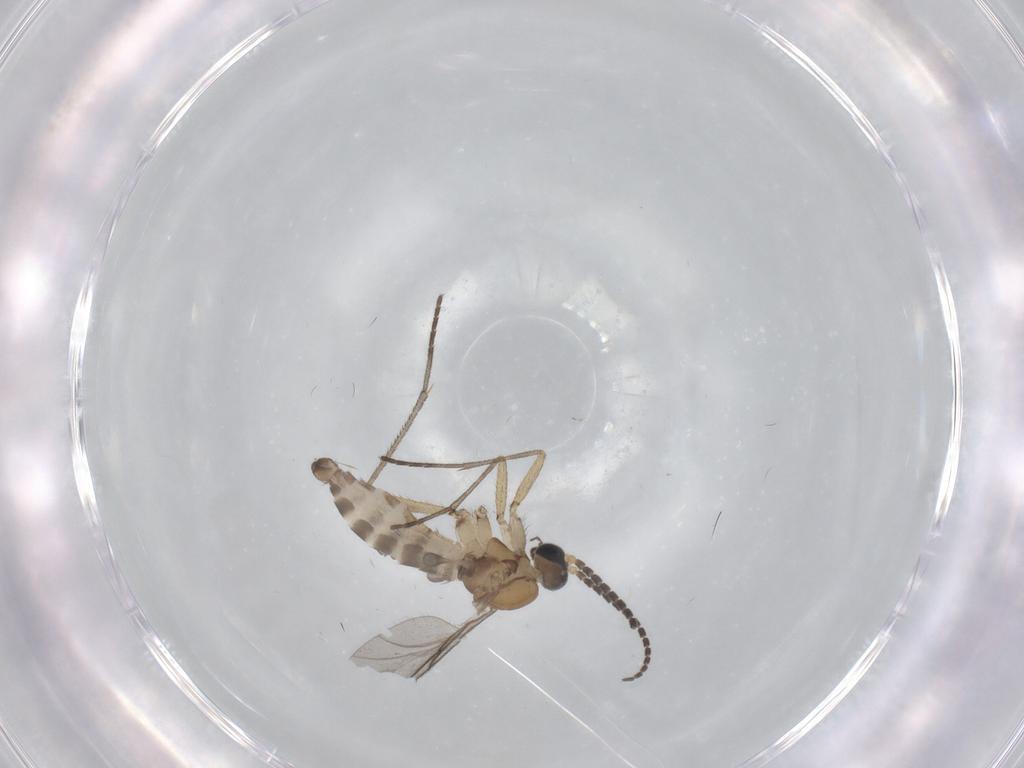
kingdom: Animalia
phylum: Arthropoda
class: Insecta
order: Diptera
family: Sciaridae
